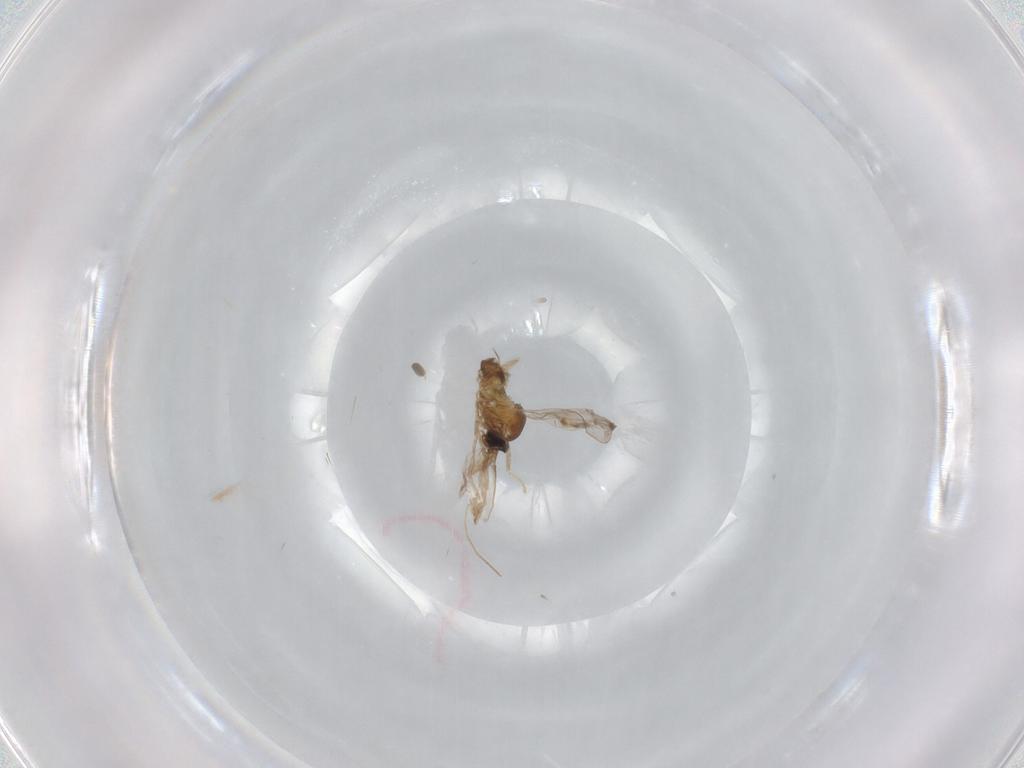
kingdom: Animalia
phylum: Arthropoda
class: Insecta
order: Diptera
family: Cecidomyiidae
